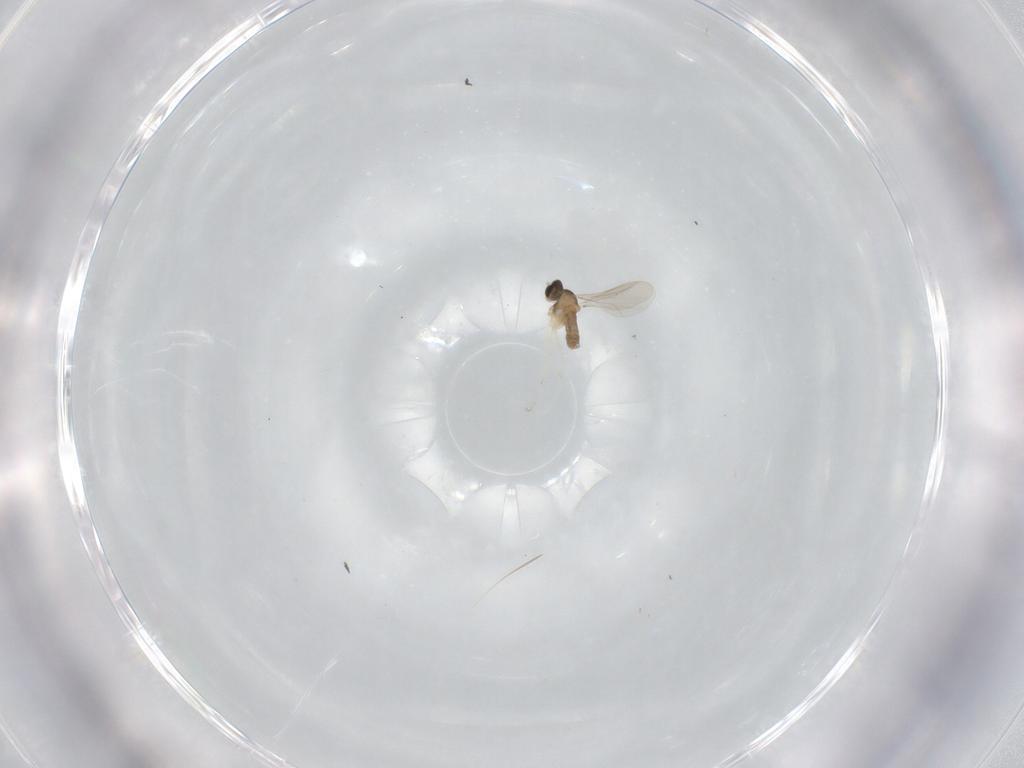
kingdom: Animalia
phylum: Arthropoda
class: Insecta
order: Diptera
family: Cecidomyiidae
